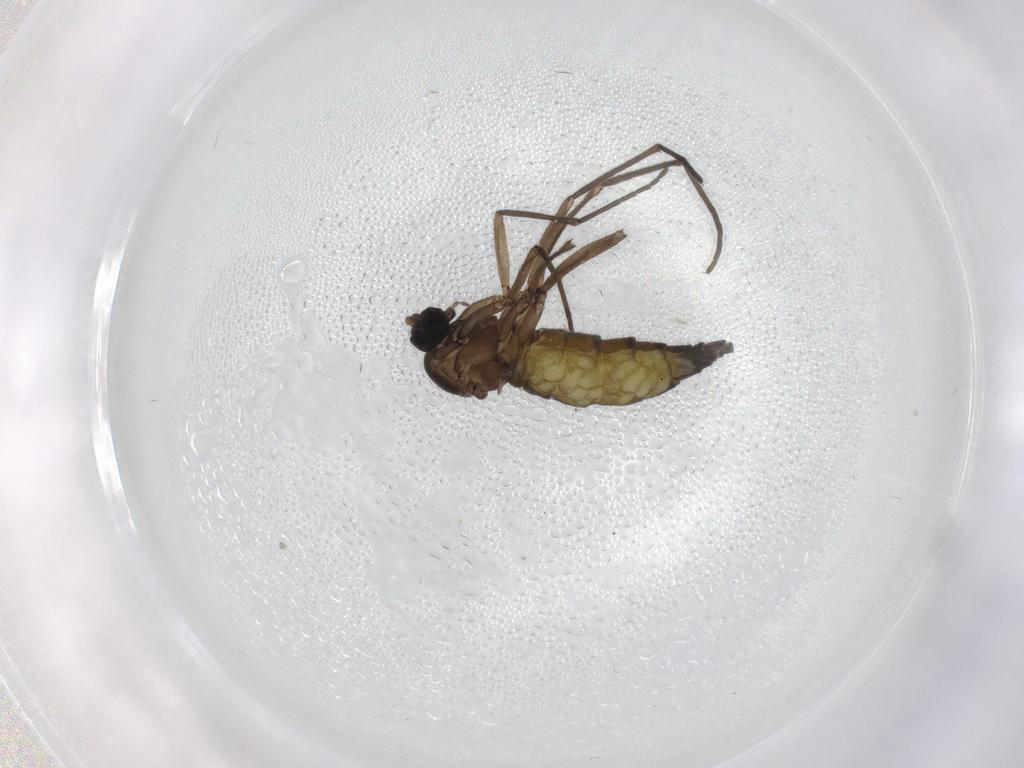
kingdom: Animalia
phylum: Arthropoda
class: Insecta
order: Diptera
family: Sciaridae
